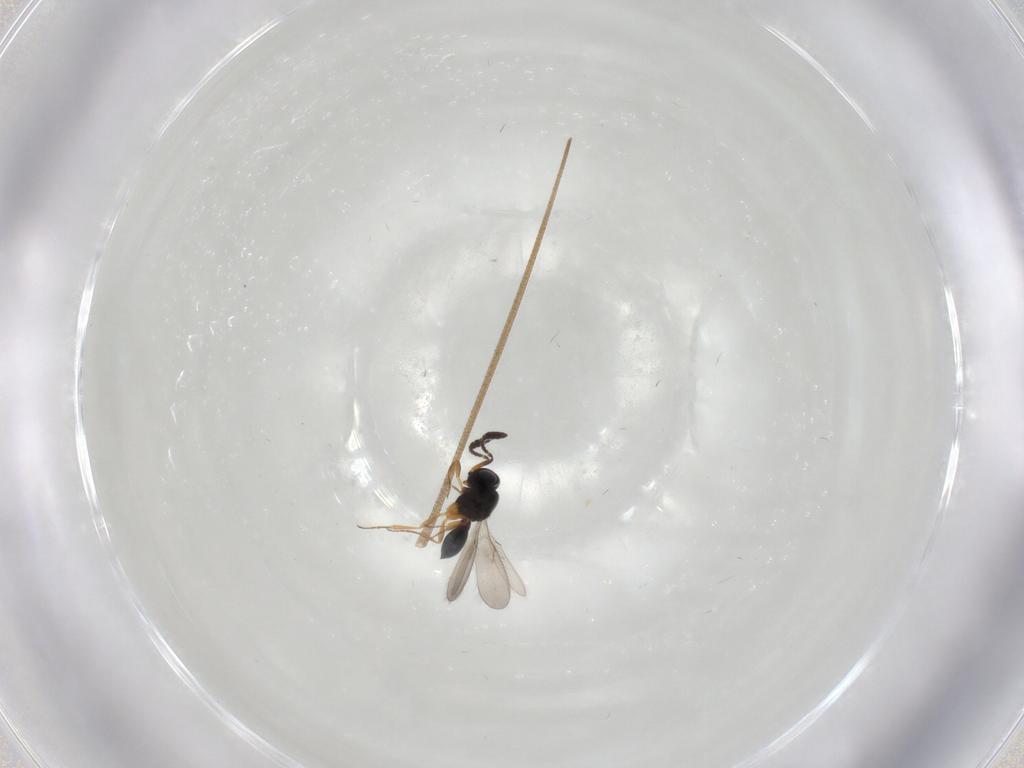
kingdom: Animalia
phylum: Arthropoda
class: Insecta
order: Hymenoptera
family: Scelionidae
